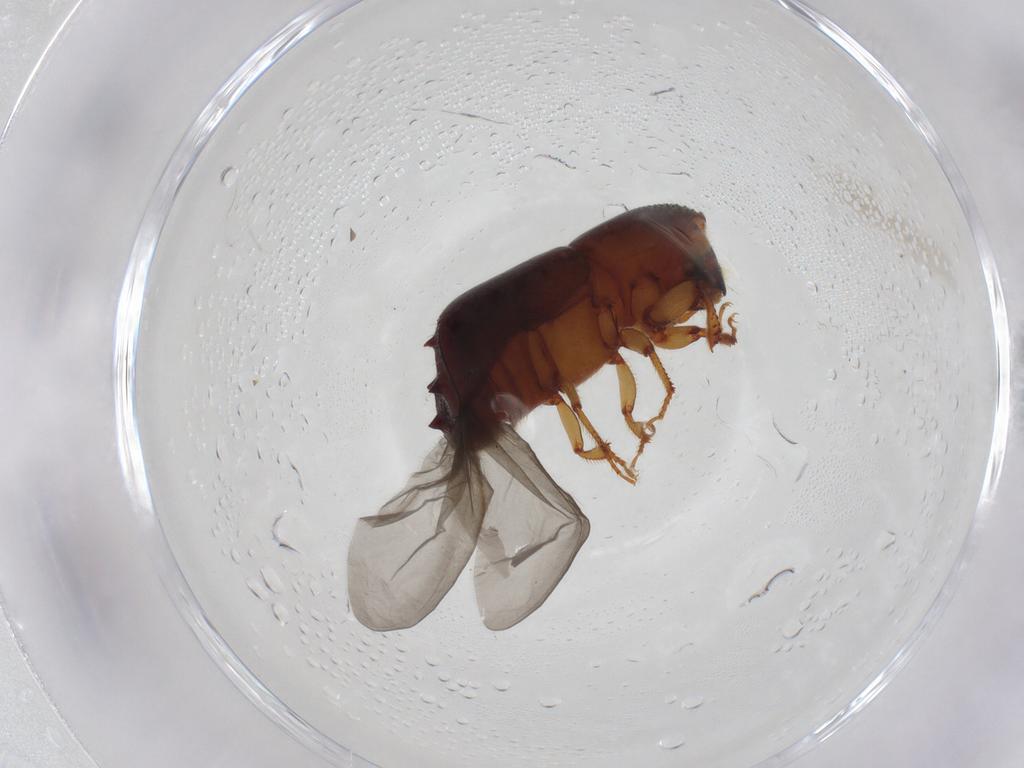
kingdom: Animalia
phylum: Arthropoda
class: Insecta
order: Coleoptera
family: Curculionidae
